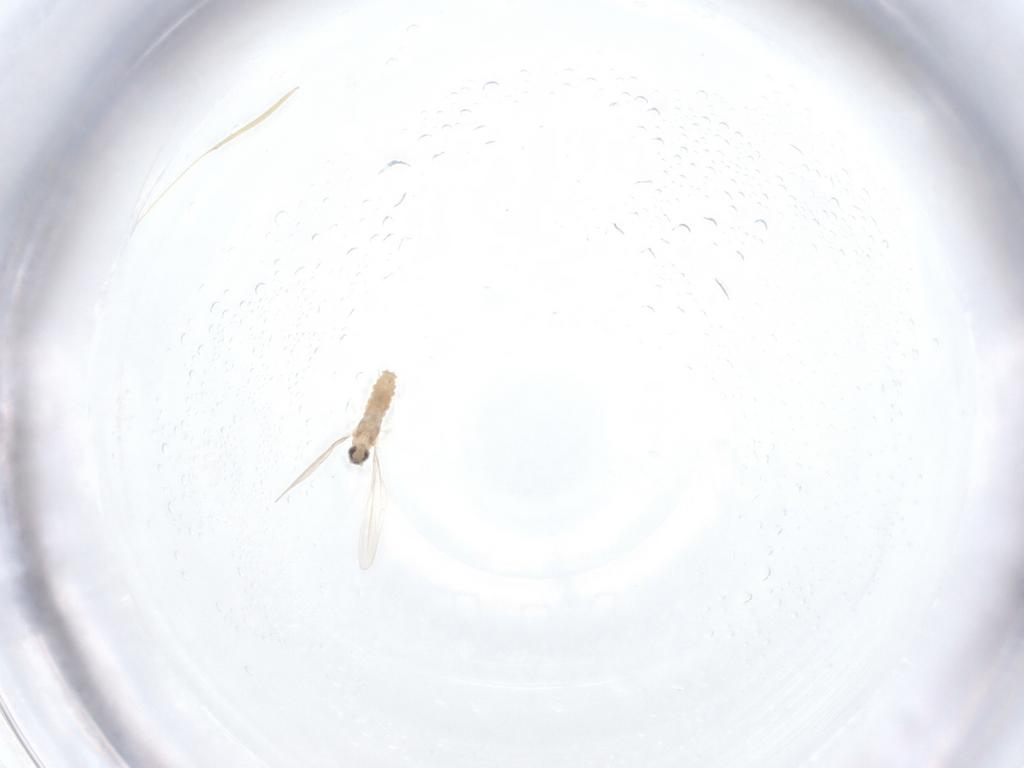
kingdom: Animalia
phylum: Arthropoda
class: Insecta
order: Diptera
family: Cecidomyiidae
